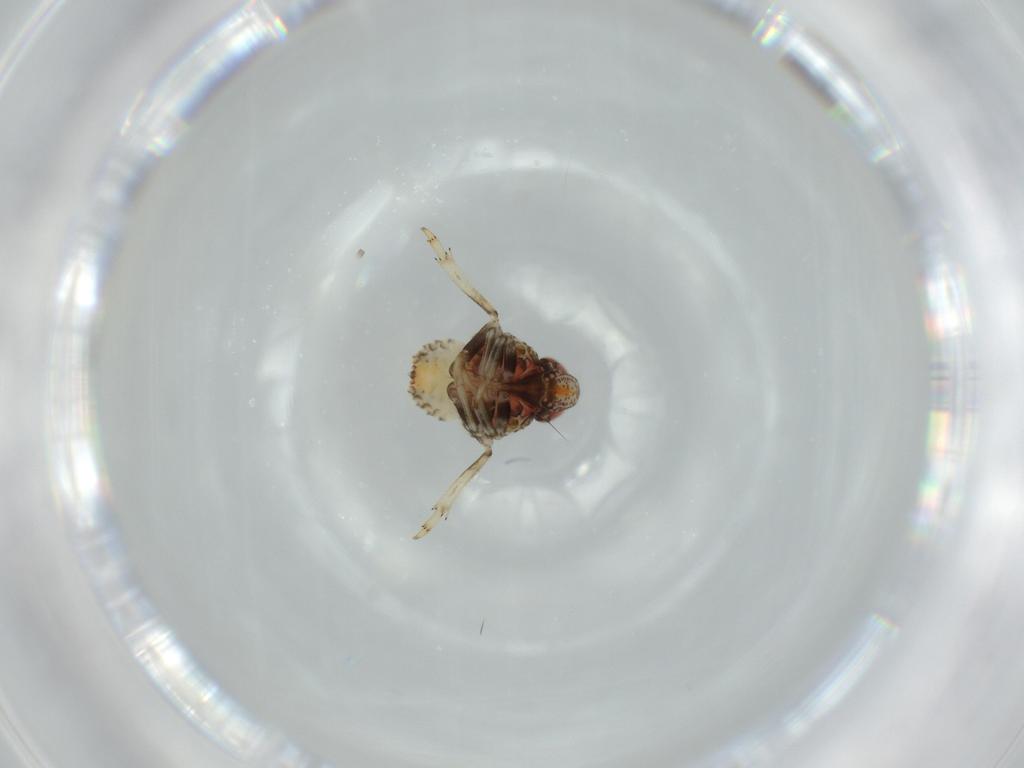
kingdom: Animalia
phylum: Arthropoda
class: Insecta
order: Hemiptera
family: Issidae
